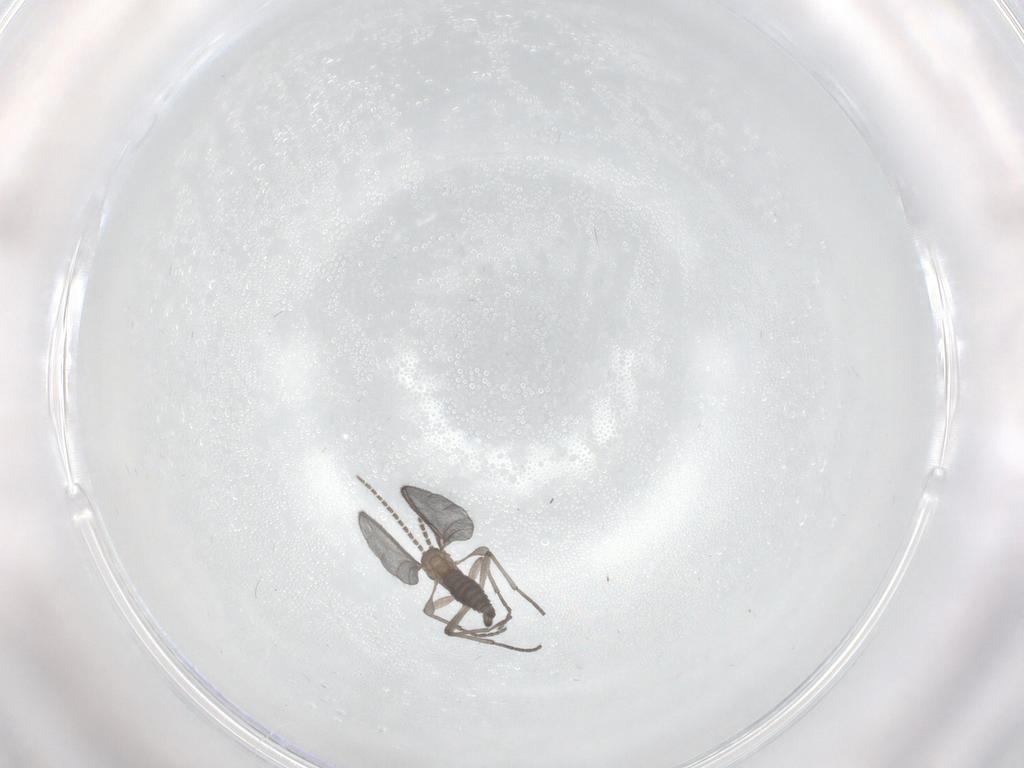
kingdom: Animalia
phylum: Arthropoda
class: Insecta
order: Diptera
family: Sciaridae
